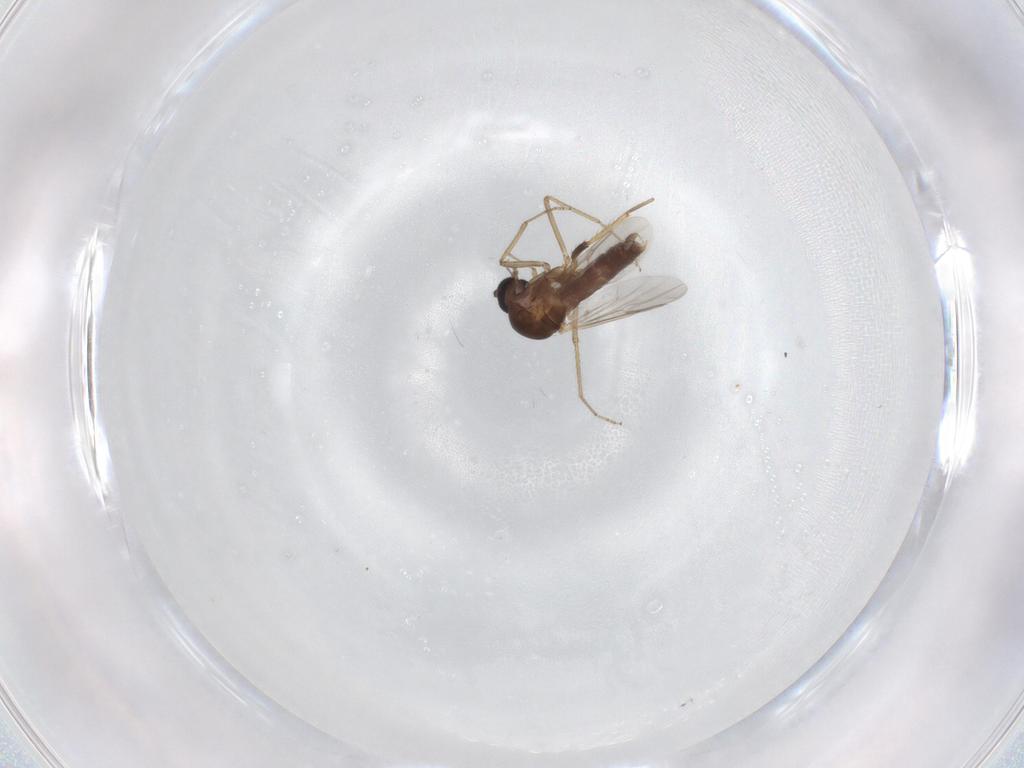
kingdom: Animalia
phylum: Arthropoda
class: Insecta
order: Diptera
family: Chironomidae
